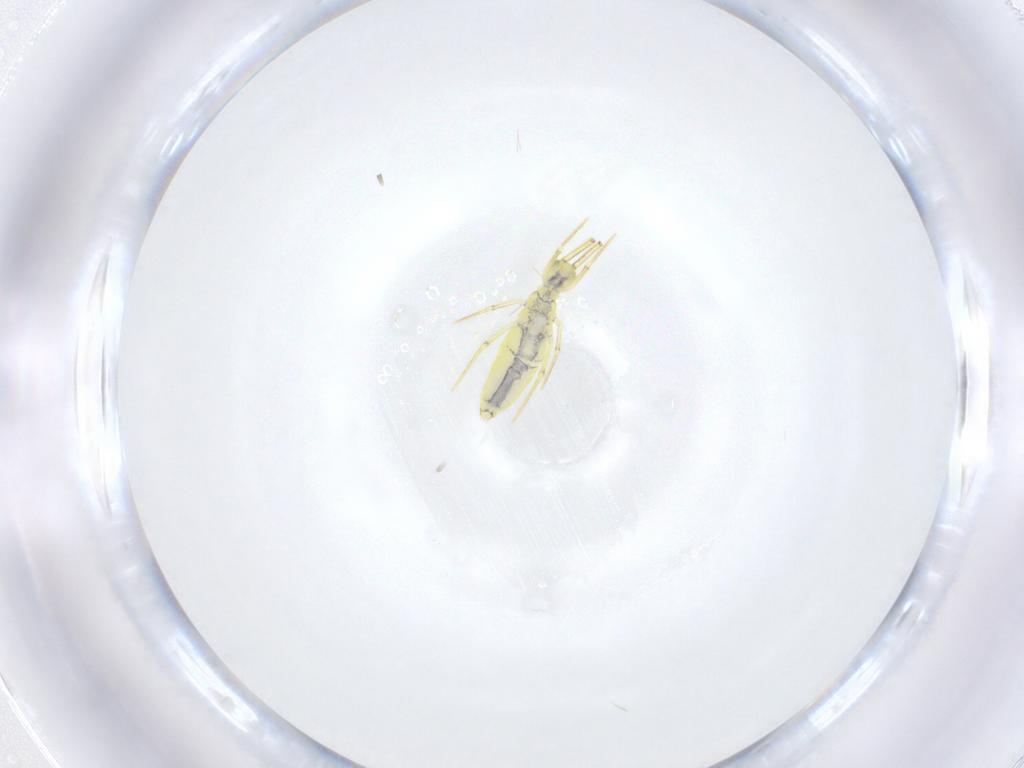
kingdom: Animalia
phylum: Arthropoda
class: Collembola
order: Entomobryomorpha
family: Entomobryidae
